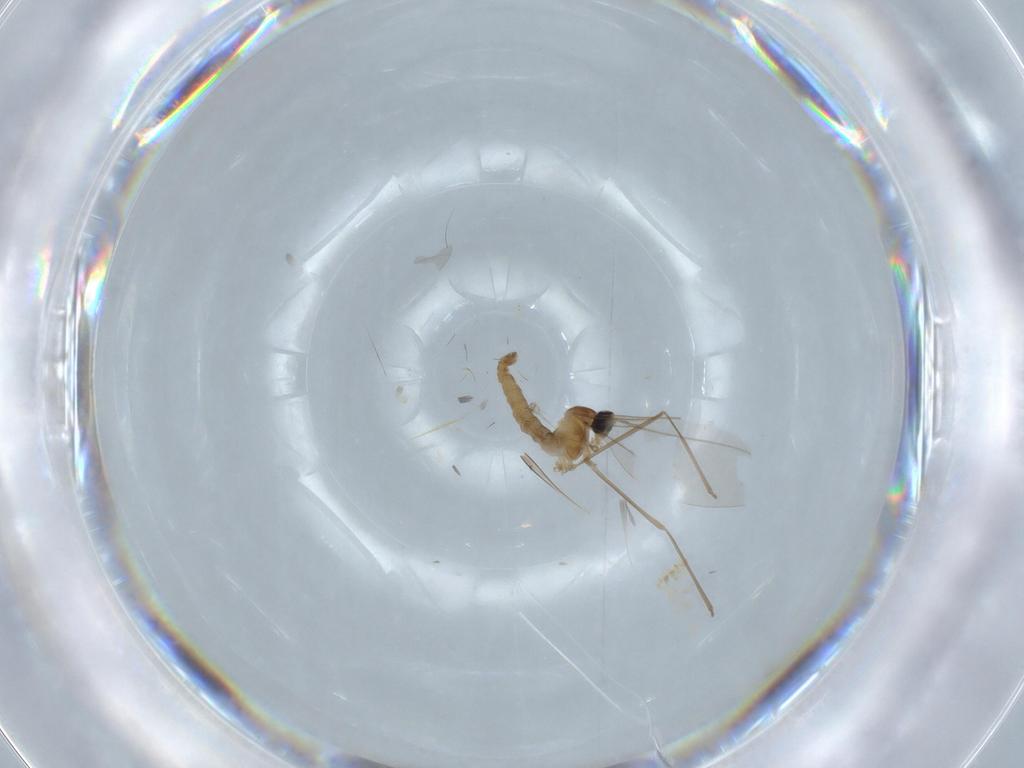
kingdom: Animalia
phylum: Arthropoda
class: Insecta
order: Diptera
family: Cecidomyiidae
